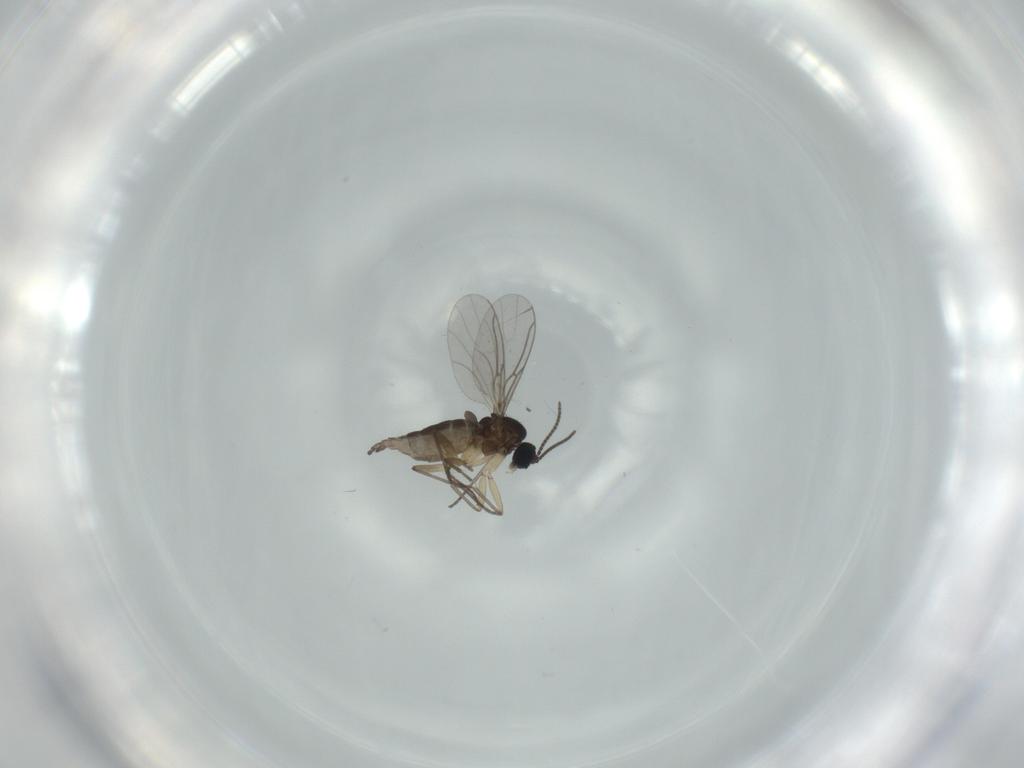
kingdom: Animalia
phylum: Arthropoda
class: Insecta
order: Diptera
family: Sciaridae
